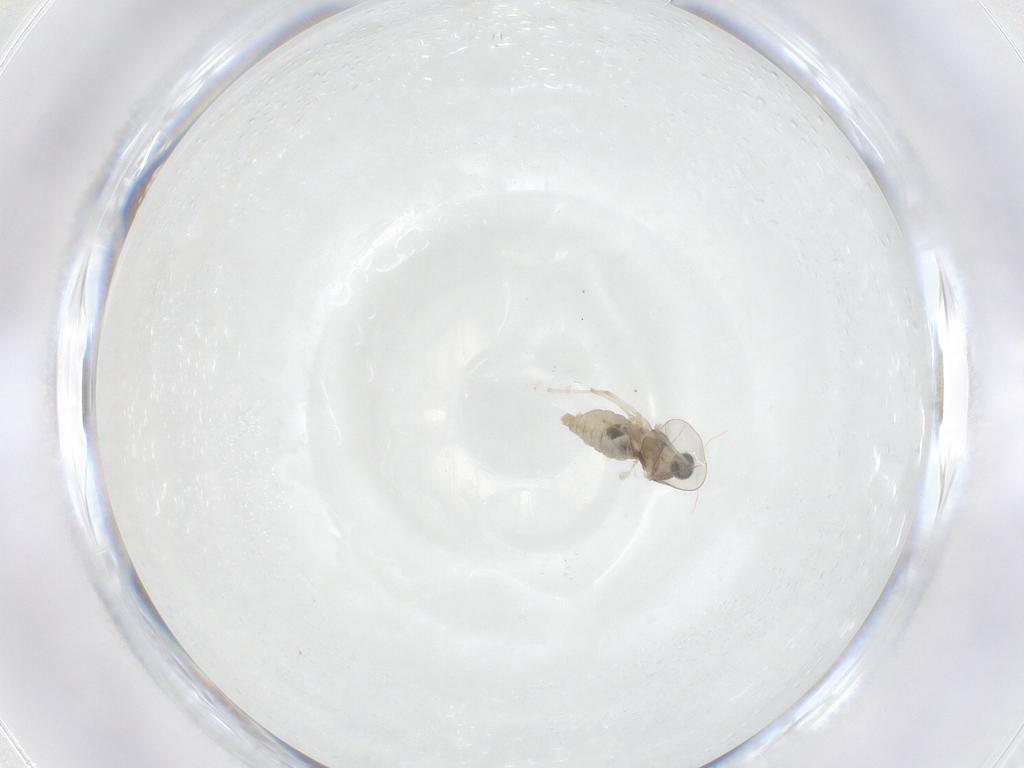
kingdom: Animalia
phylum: Arthropoda
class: Insecta
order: Diptera
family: Cecidomyiidae
